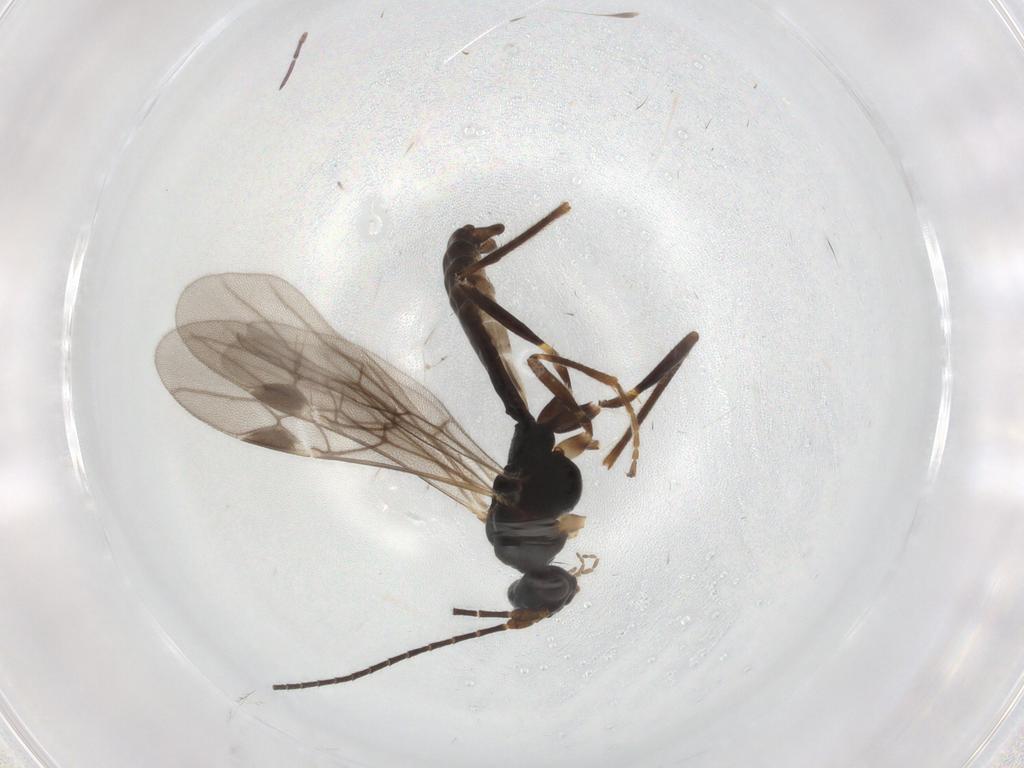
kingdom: Animalia
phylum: Arthropoda
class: Insecta
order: Hymenoptera
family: Braconidae
